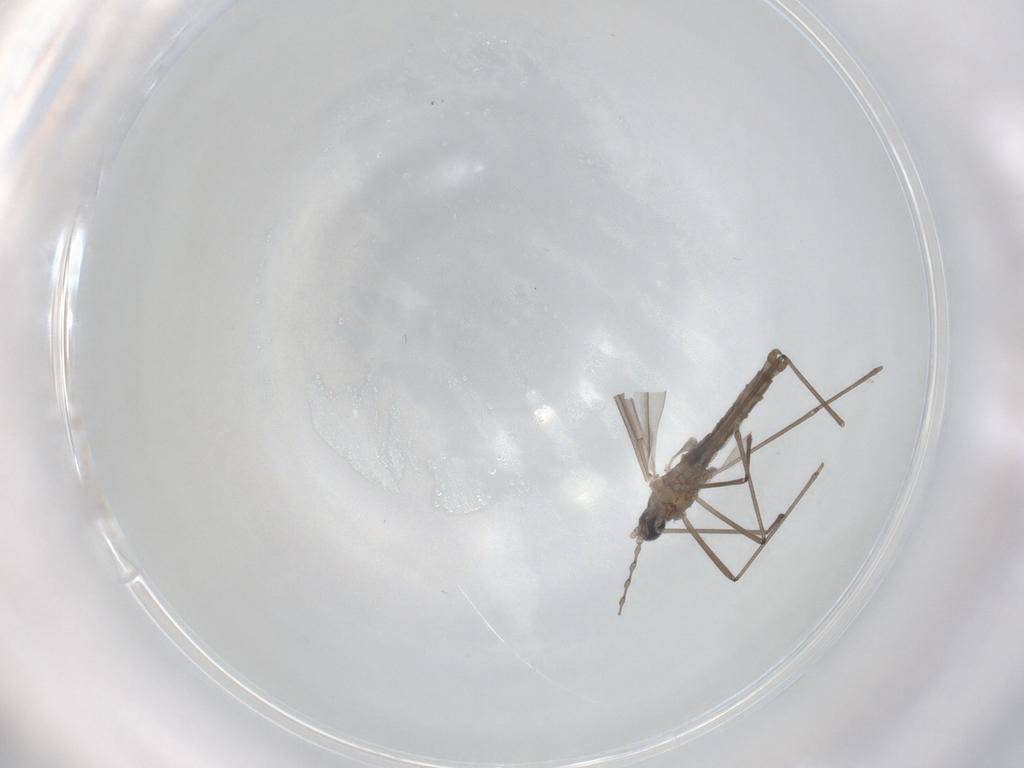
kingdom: Animalia
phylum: Arthropoda
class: Insecta
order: Diptera
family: Cecidomyiidae
